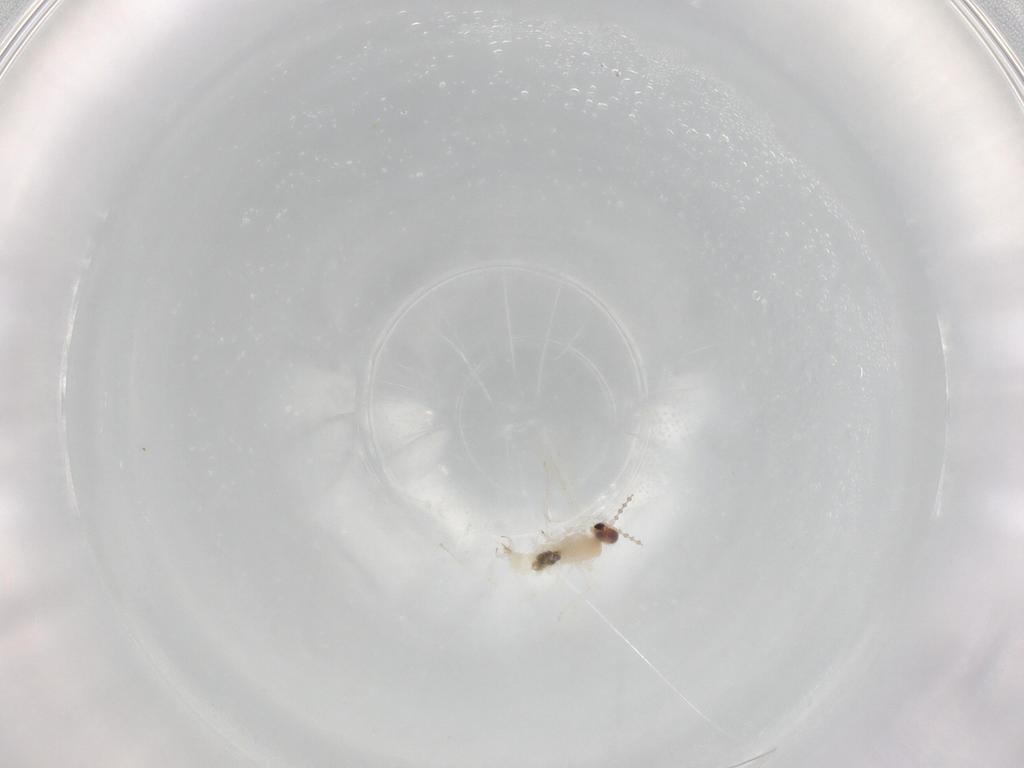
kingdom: Animalia
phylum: Arthropoda
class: Insecta
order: Diptera
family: Cecidomyiidae
